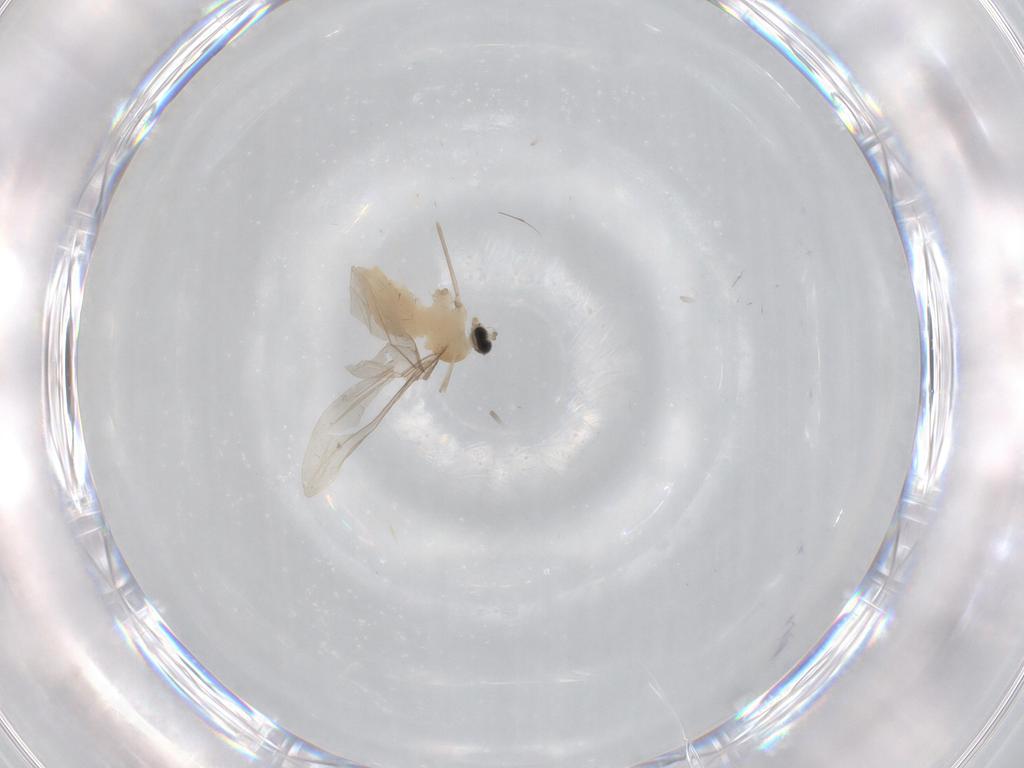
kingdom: Animalia
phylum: Arthropoda
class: Insecta
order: Diptera
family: Cecidomyiidae
